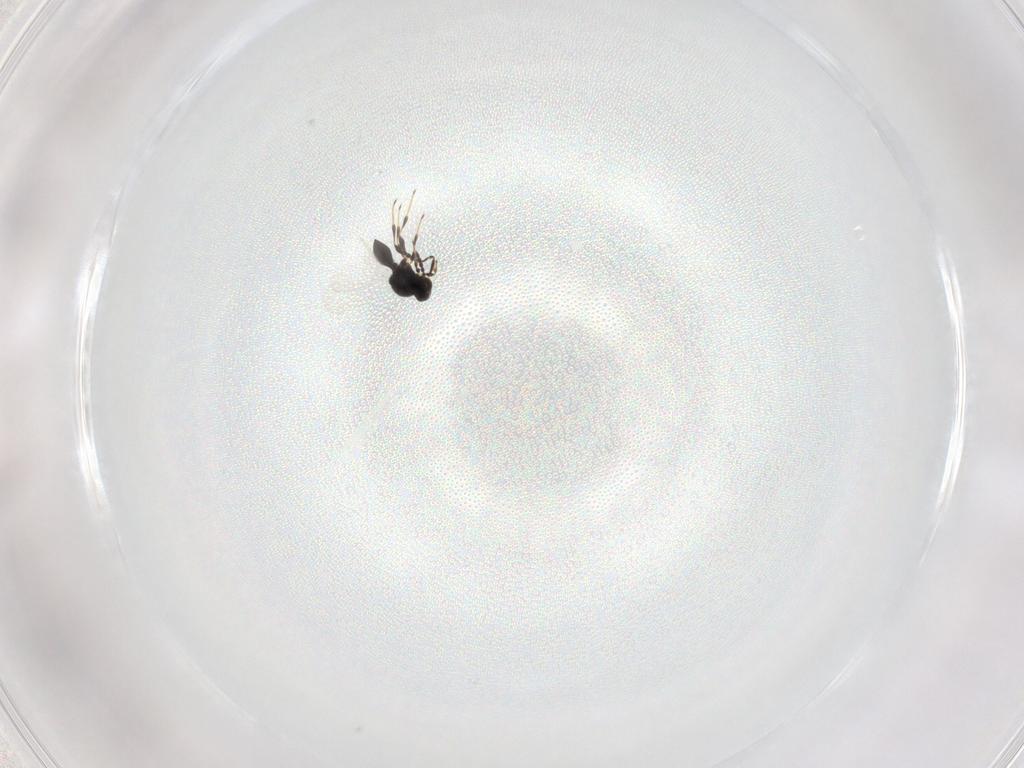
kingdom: Animalia
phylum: Arthropoda
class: Insecta
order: Hymenoptera
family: Platygastridae
